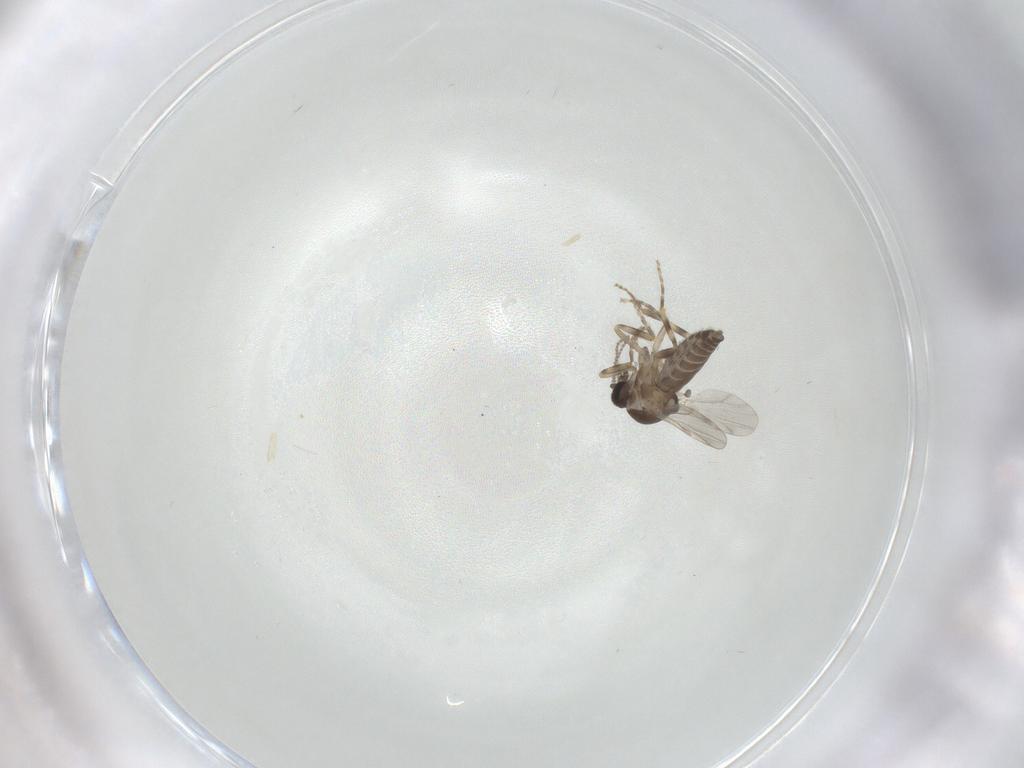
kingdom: Animalia
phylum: Arthropoda
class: Insecta
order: Diptera
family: Ceratopogonidae
